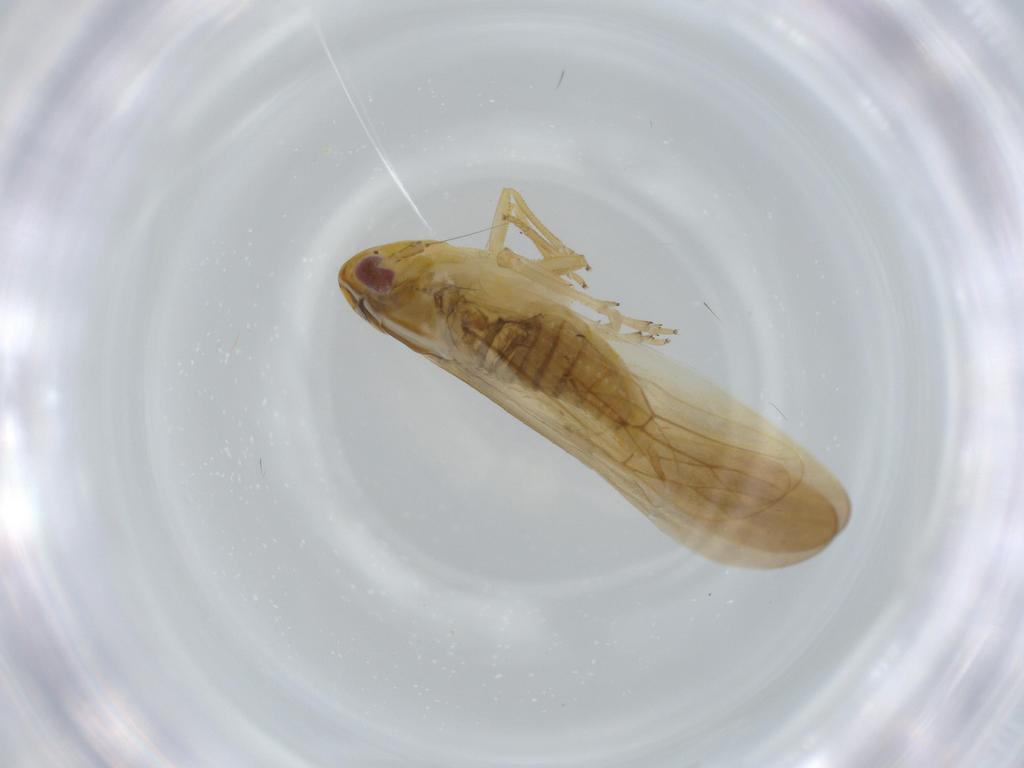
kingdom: Animalia
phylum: Arthropoda
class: Insecta
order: Hemiptera
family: Delphacidae
